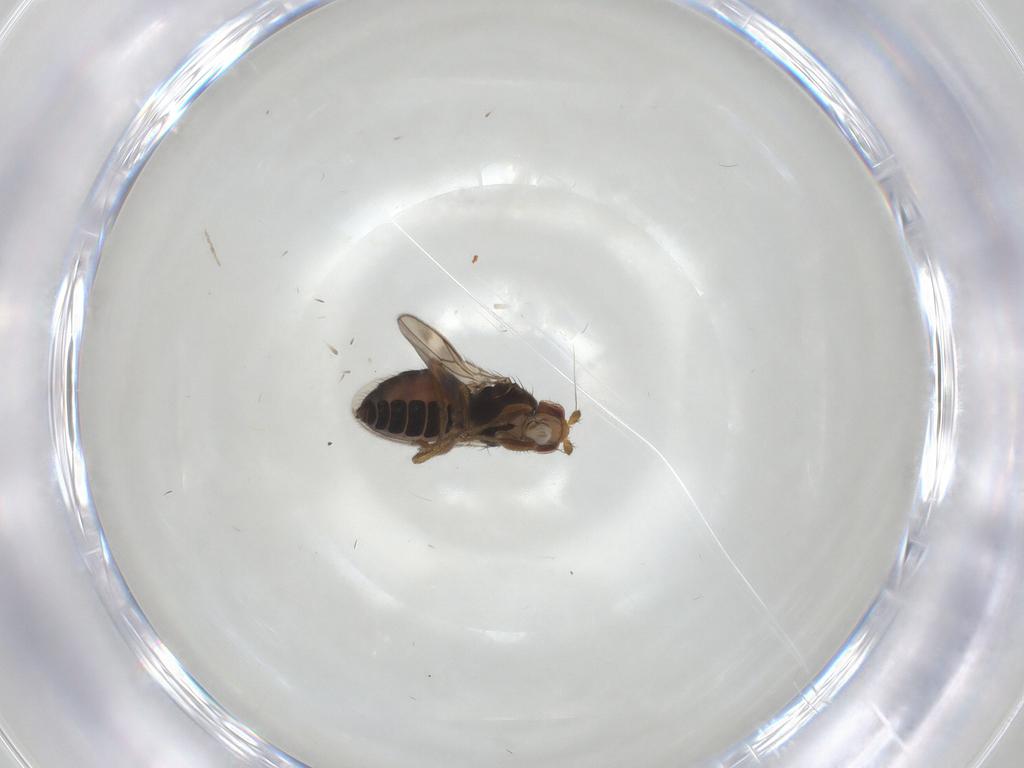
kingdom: Animalia
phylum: Arthropoda
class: Insecta
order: Diptera
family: Sphaeroceridae
